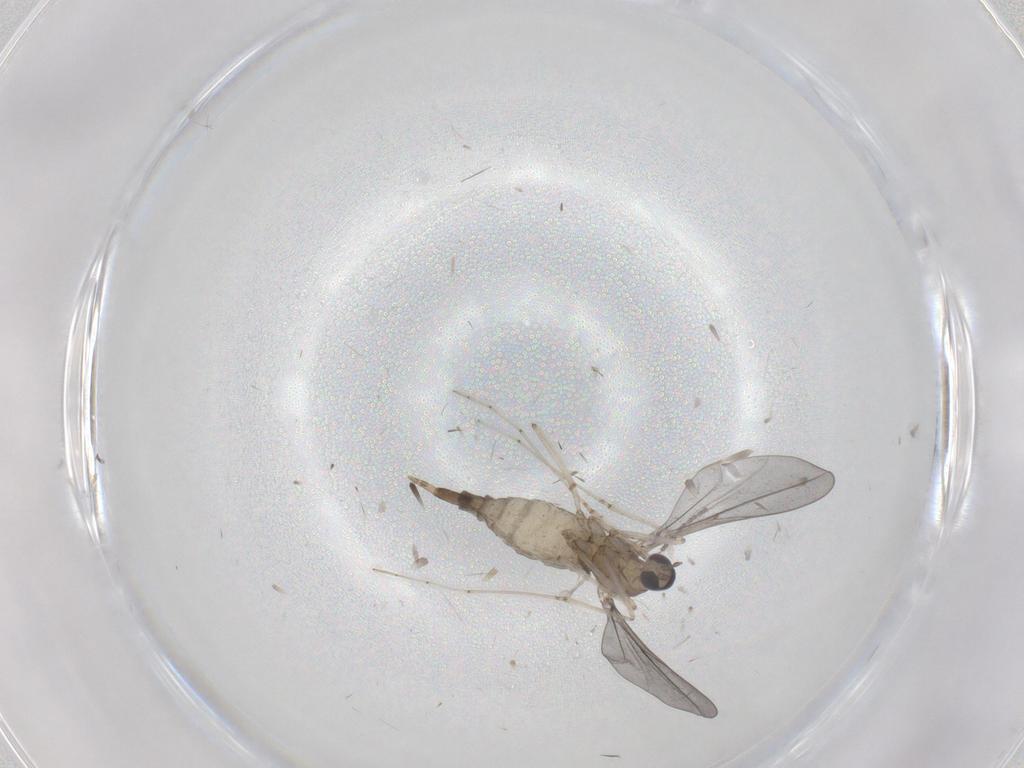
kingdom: Animalia
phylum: Arthropoda
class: Insecta
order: Diptera
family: Cecidomyiidae
